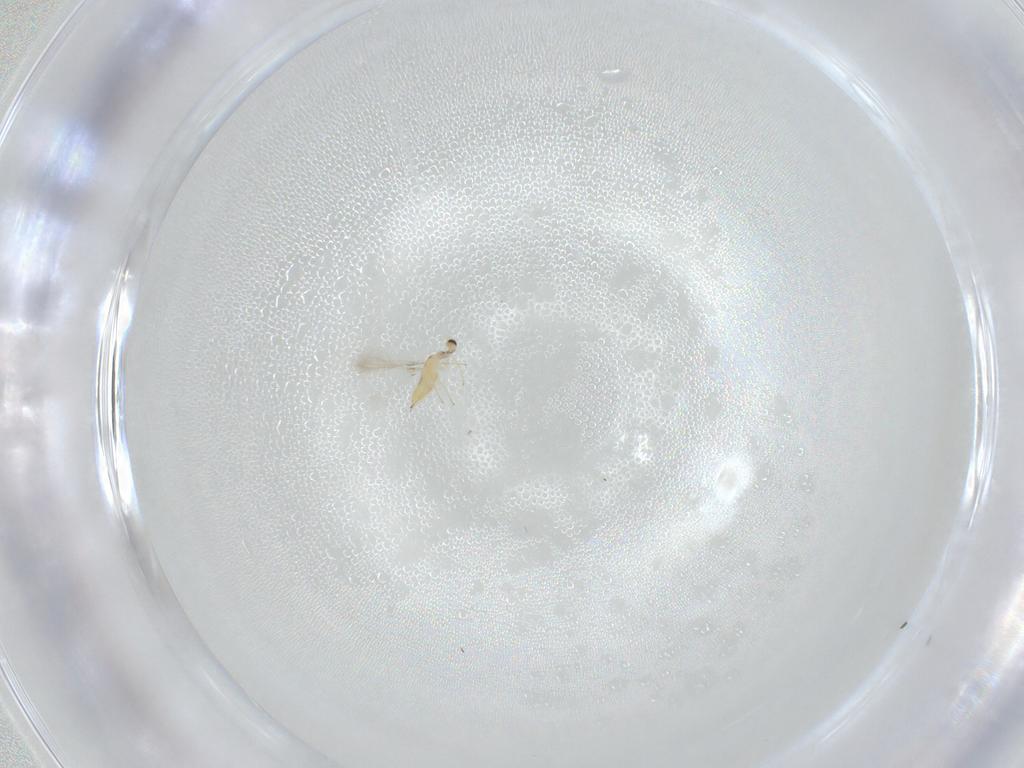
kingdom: Animalia
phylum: Arthropoda
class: Insecta
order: Hymenoptera
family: Mymaridae
